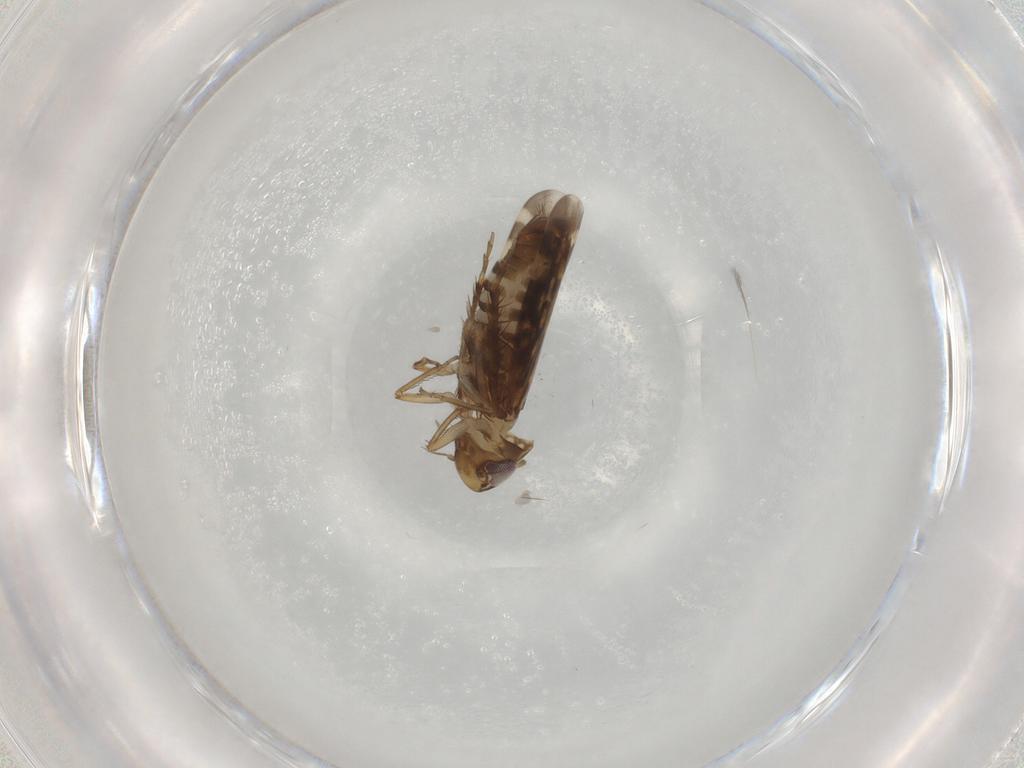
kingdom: Animalia
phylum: Arthropoda
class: Insecta
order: Hemiptera
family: Cicadellidae
